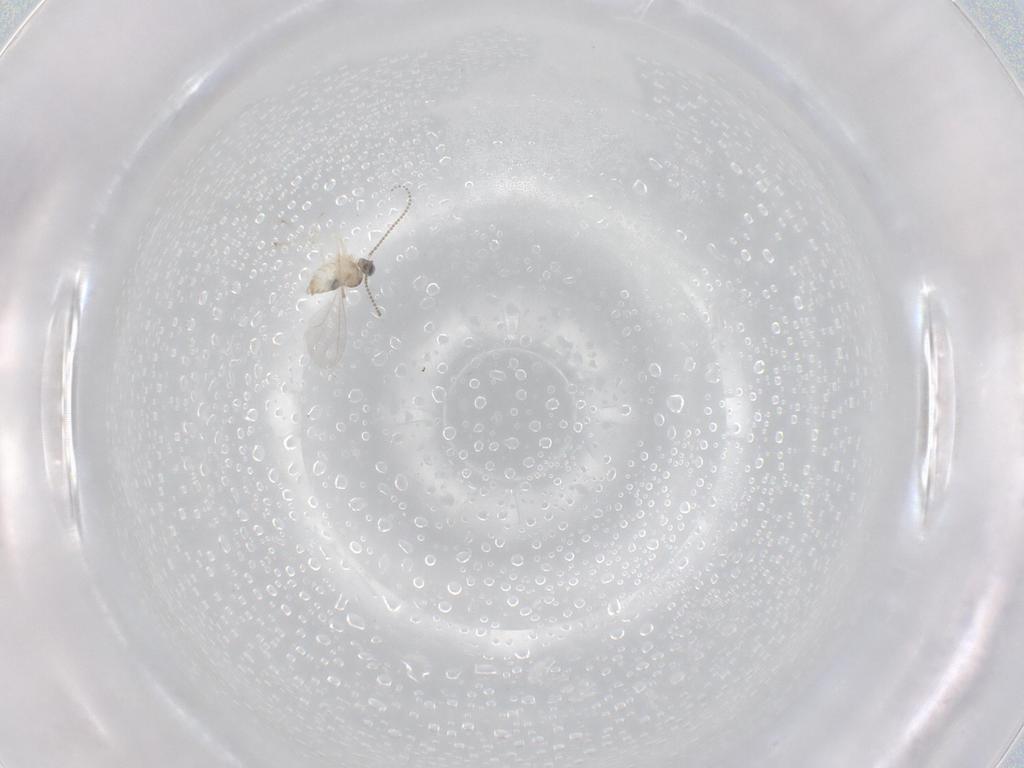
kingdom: Animalia
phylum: Arthropoda
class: Insecta
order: Diptera
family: Cecidomyiidae
